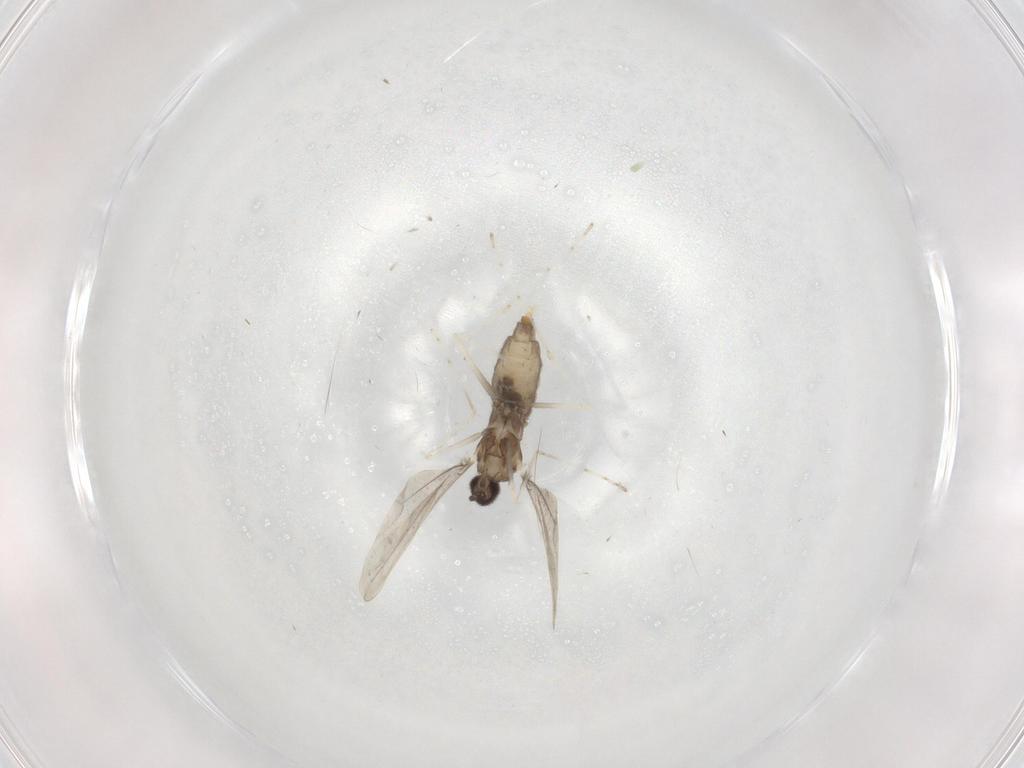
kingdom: Animalia
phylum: Arthropoda
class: Insecta
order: Diptera
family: Cecidomyiidae
